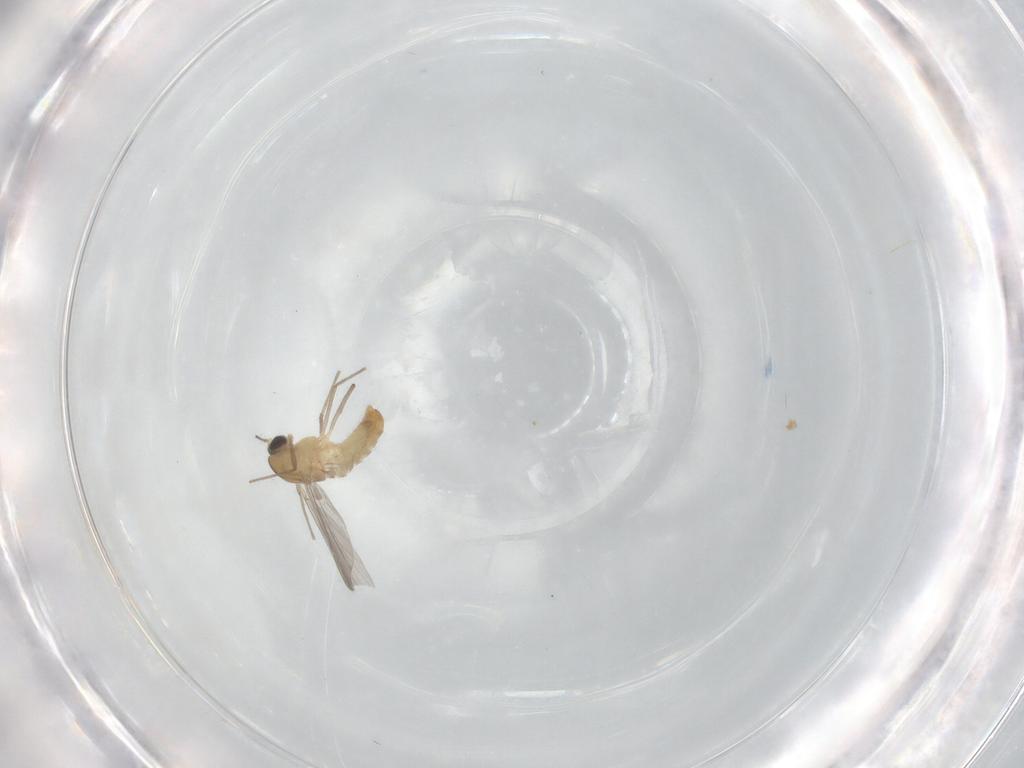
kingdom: Animalia
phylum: Arthropoda
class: Insecta
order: Diptera
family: Chironomidae
